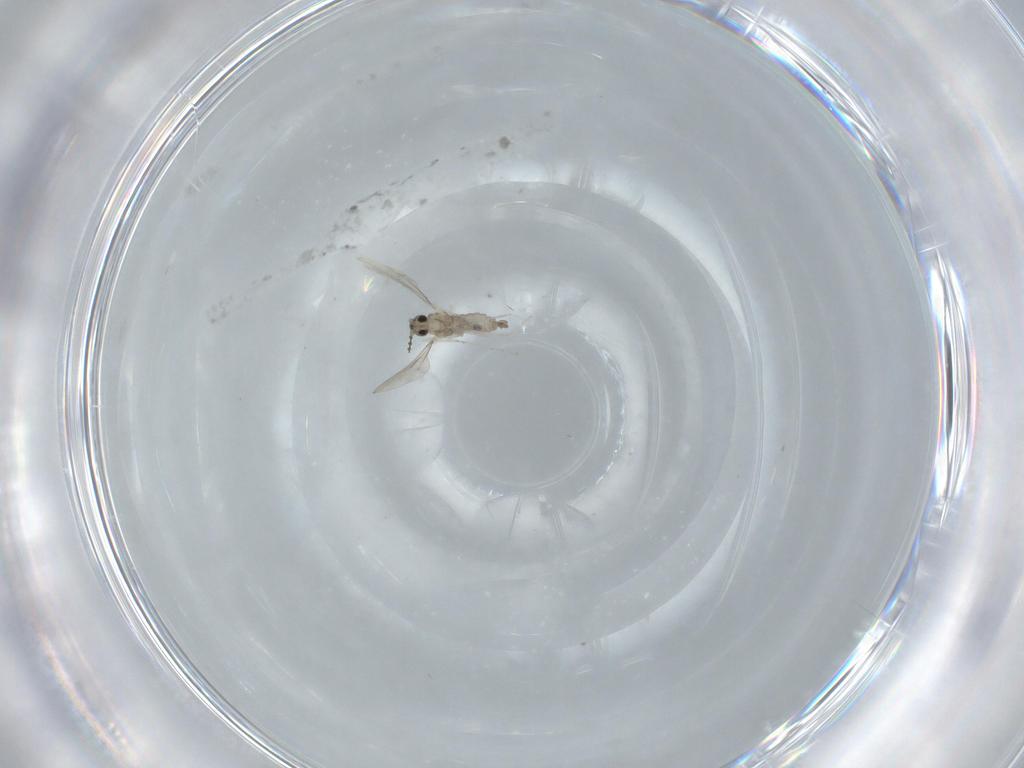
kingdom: Animalia
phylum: Arthropoda
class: Insecta
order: Diptera
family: Cecidomyiidae
